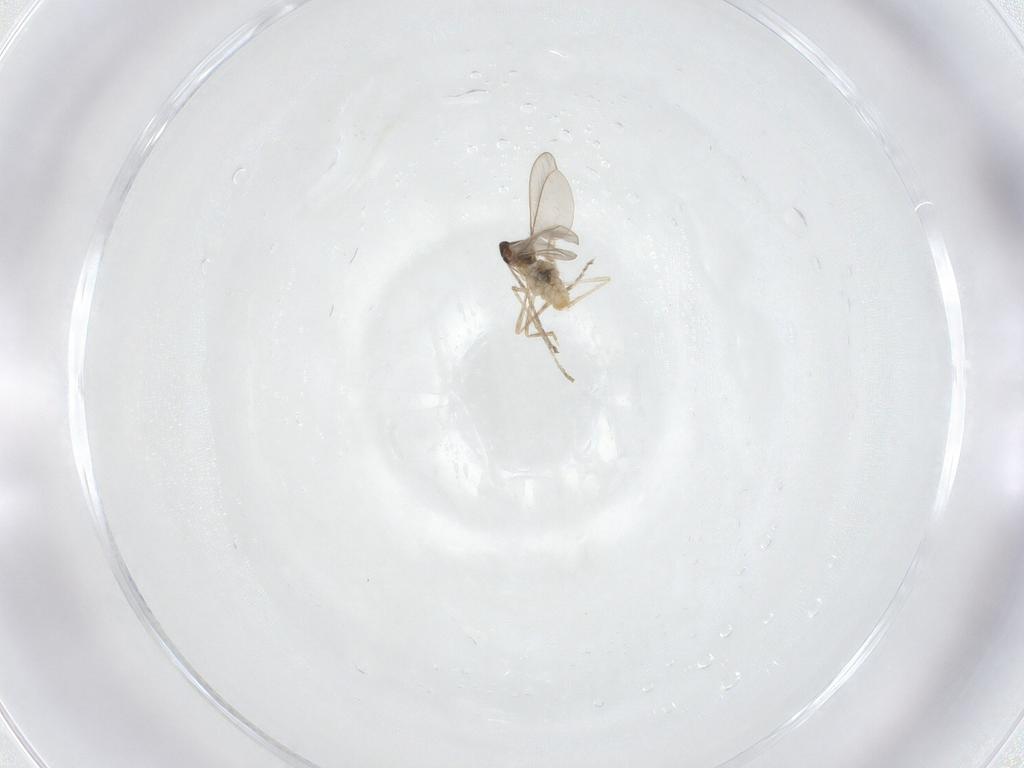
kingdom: Animalia
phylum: Arthropoda
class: Insecta
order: Diptera
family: Cecidomyiidae
